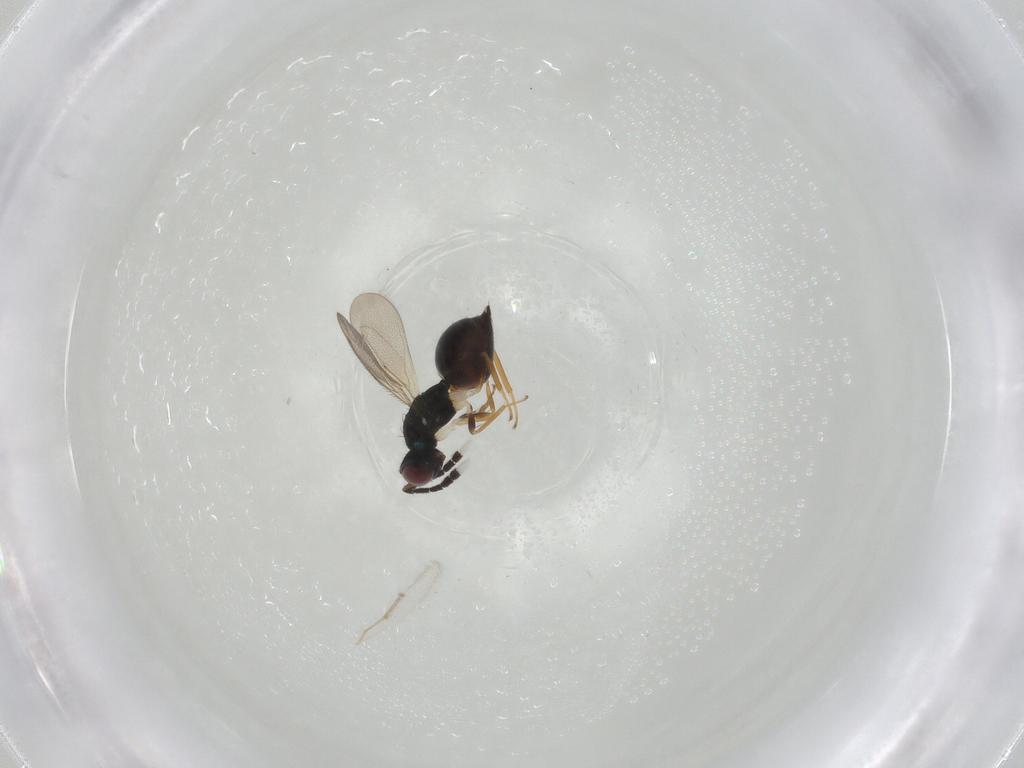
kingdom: Animalia
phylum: Arthropoda
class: Insecta
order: Hymenoptera
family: Eulophidae
